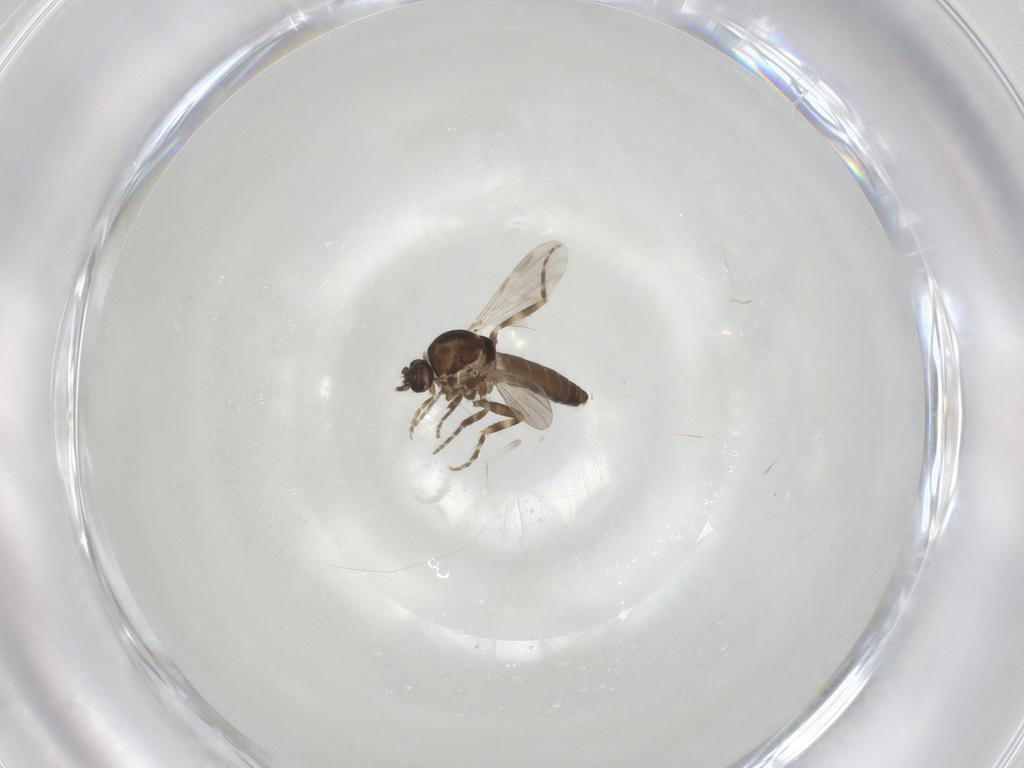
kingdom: Animalia
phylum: Arthropoda
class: Insecta
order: Diptera
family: Ceratopogonidae
